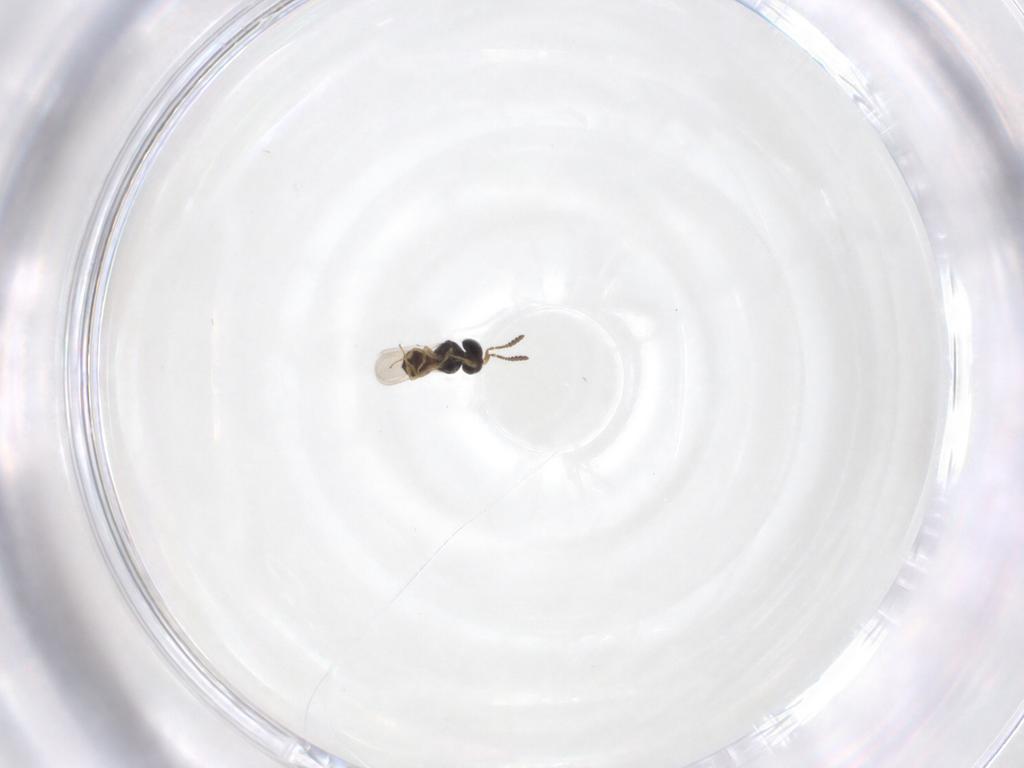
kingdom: Animalia
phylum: Arthropoda
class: Insecta
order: Hymenoptera
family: Scelionidae
